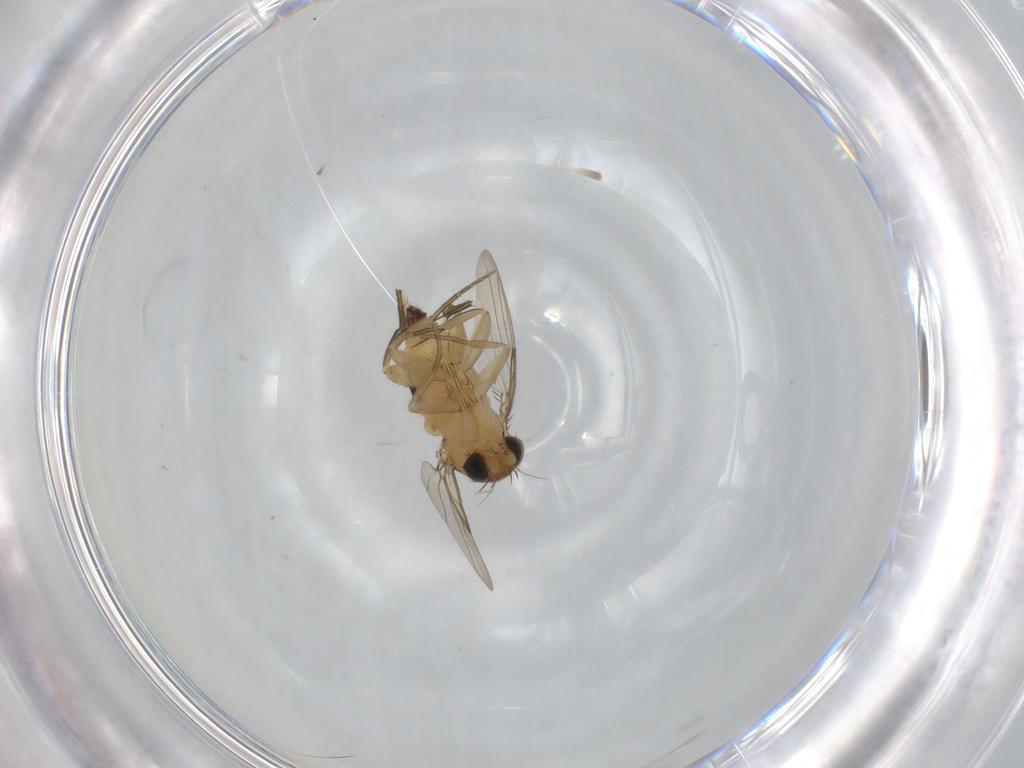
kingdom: Animalia
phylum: Arthropoda
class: Insecta
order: Diptera
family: Phoridae
